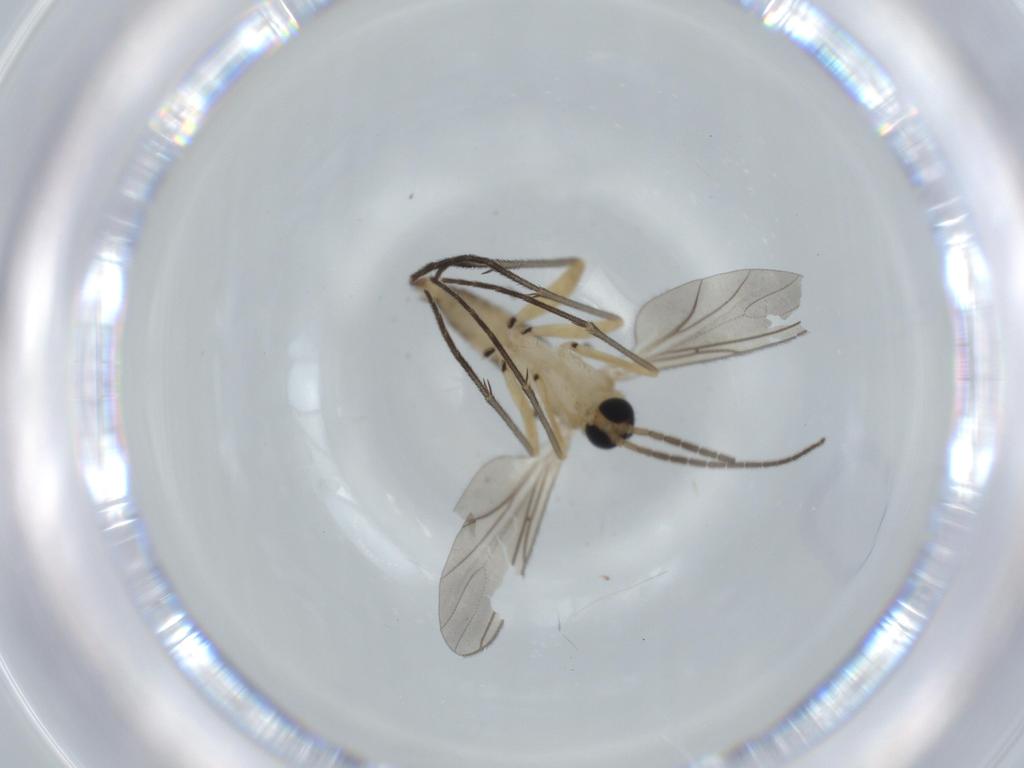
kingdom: Animalia
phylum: Arthropoda
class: Insecta
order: Diptera
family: Sciaridae
